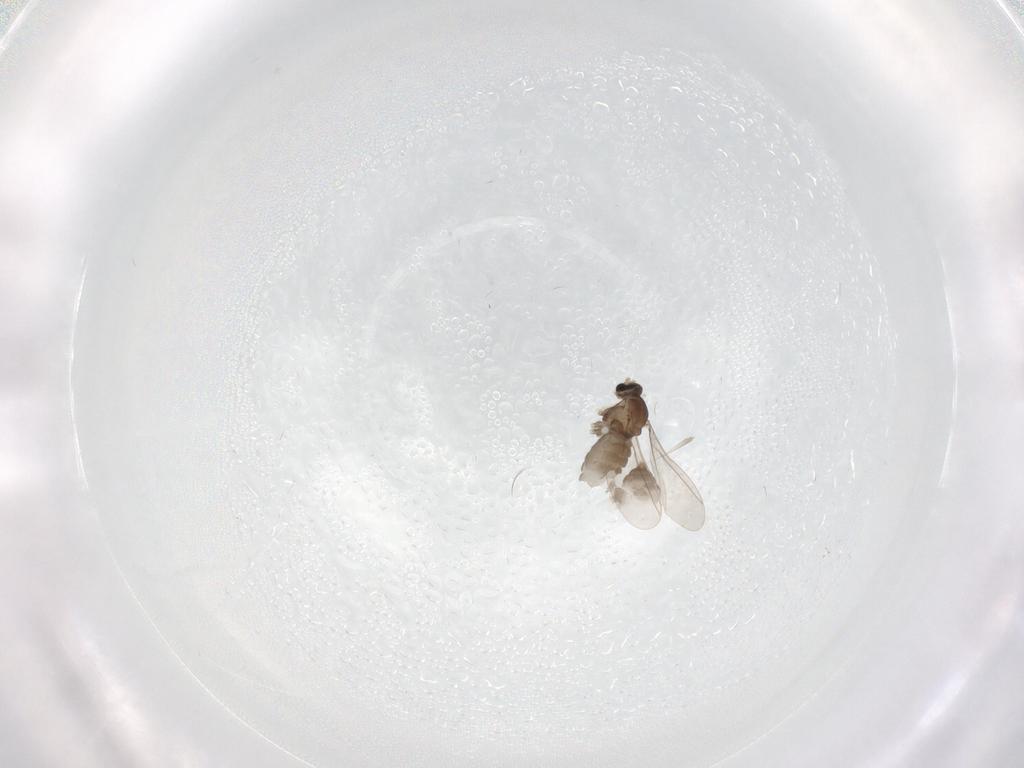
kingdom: Animalia
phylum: Arthropoda
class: Insecta
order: Diptera
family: Cecidomyiidae
